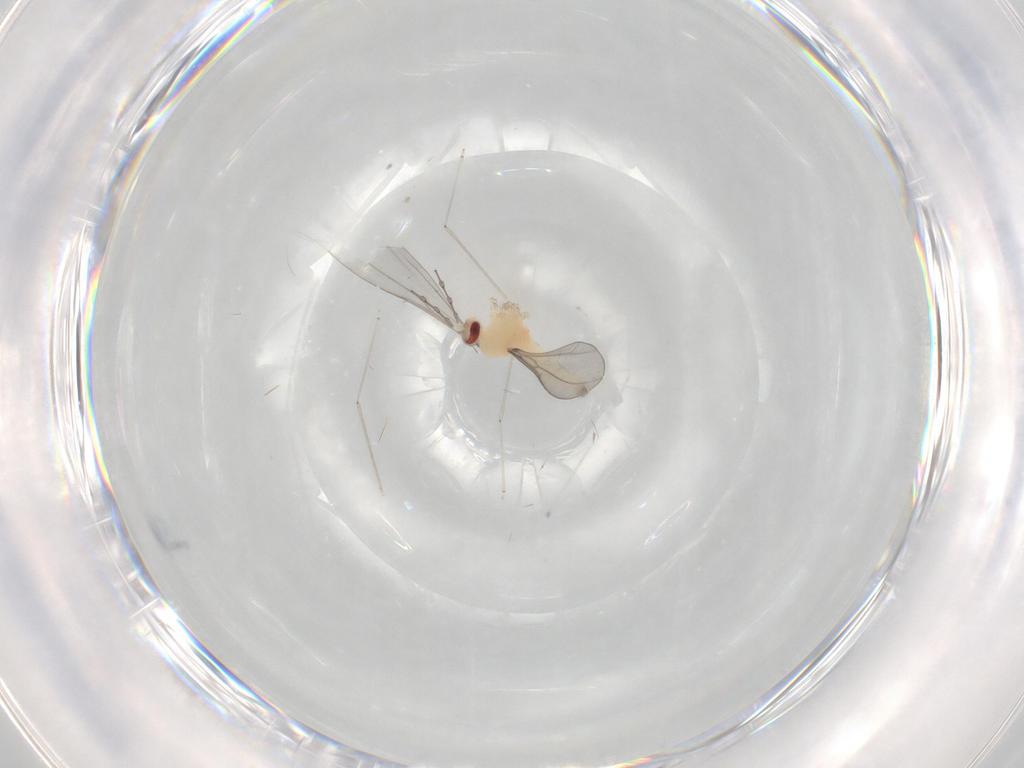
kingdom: Animalia
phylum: Arthropoda
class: Insecta
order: Diptera
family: Cecidomyiidae
